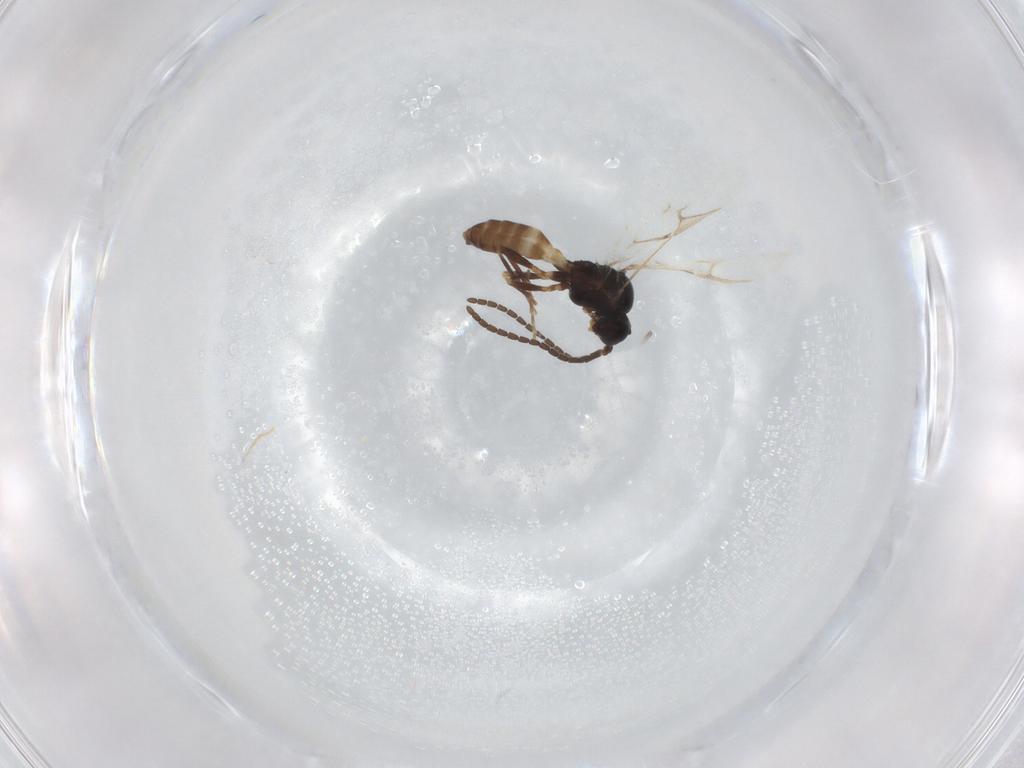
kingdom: Animalia
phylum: Arthropoda
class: Insecta
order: Hymenoptera
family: Braconidae
